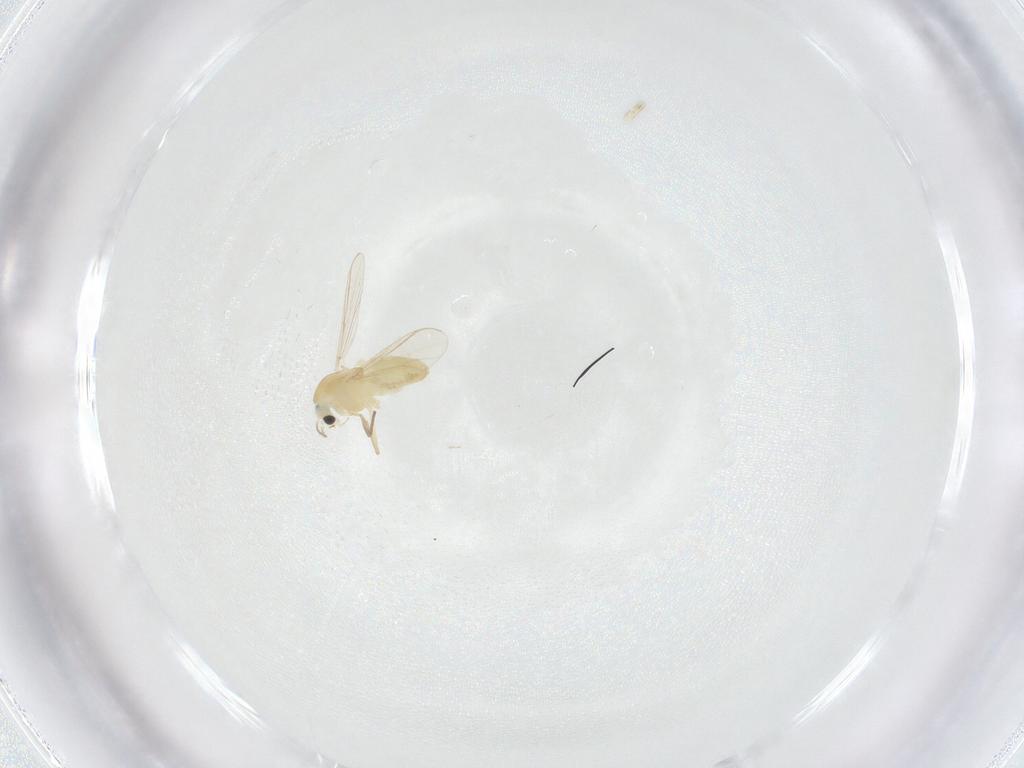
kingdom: Animalia
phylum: Arthropoda
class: Insecta
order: Diptera
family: Chironomidae
